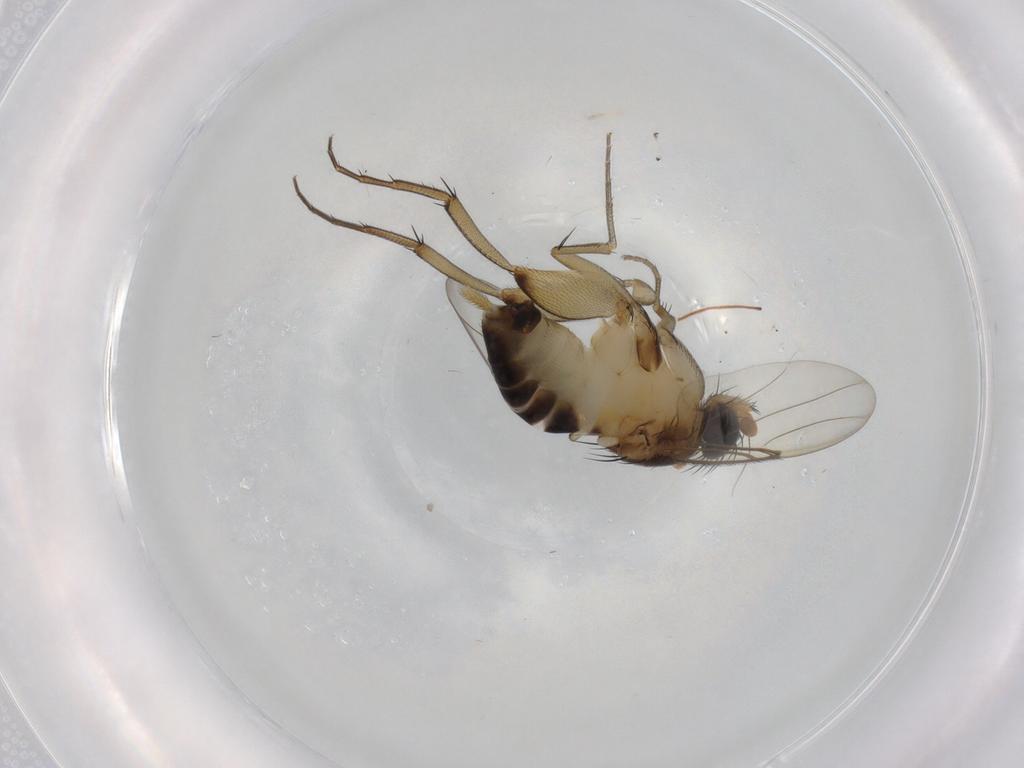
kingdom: Animalia
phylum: Arthropoda
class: Insecta
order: Diptera
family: Phoridae
